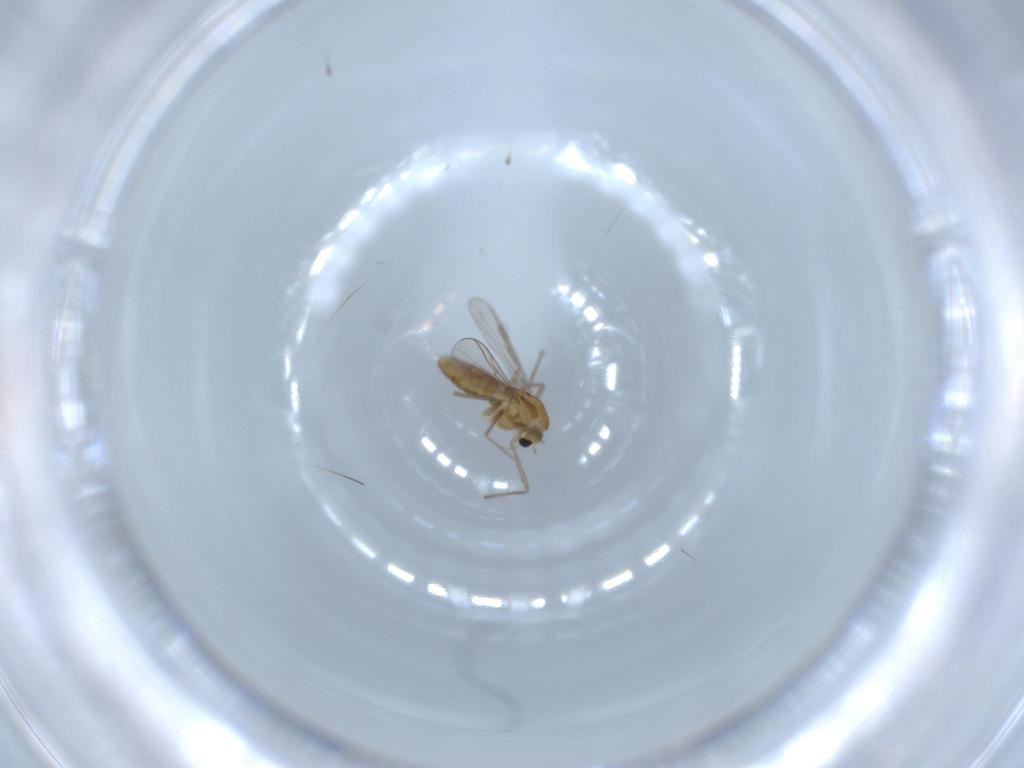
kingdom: Animalia
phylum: Arthropoda
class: Insecta
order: Diptera
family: Chironomidae
